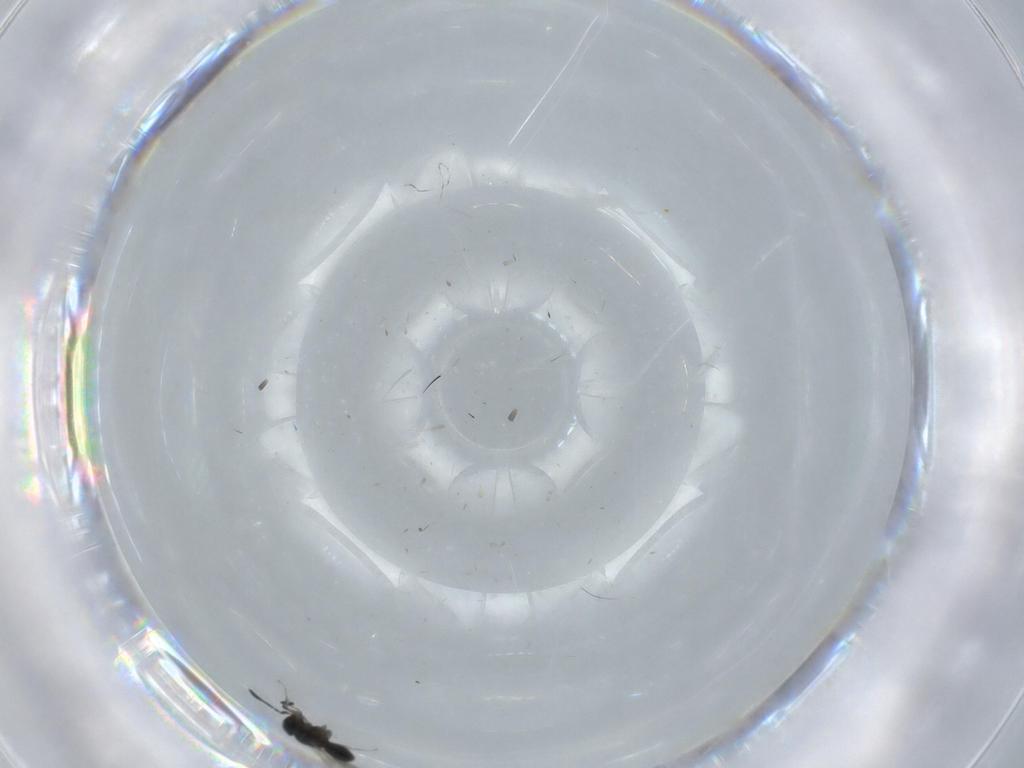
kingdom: Animalia
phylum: Arthropoda
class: Insecta
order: Hymenoptera
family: Scelionidae
